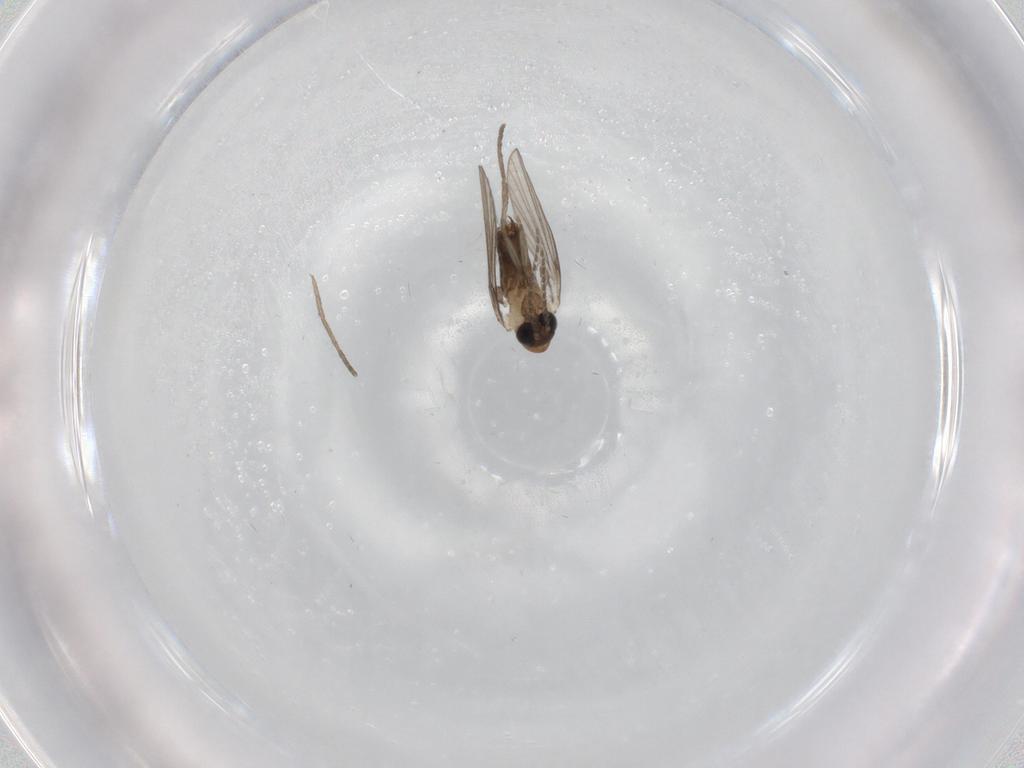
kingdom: Animalia
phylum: Arthropoda
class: Insecta
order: Diptera
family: Psychodidae
